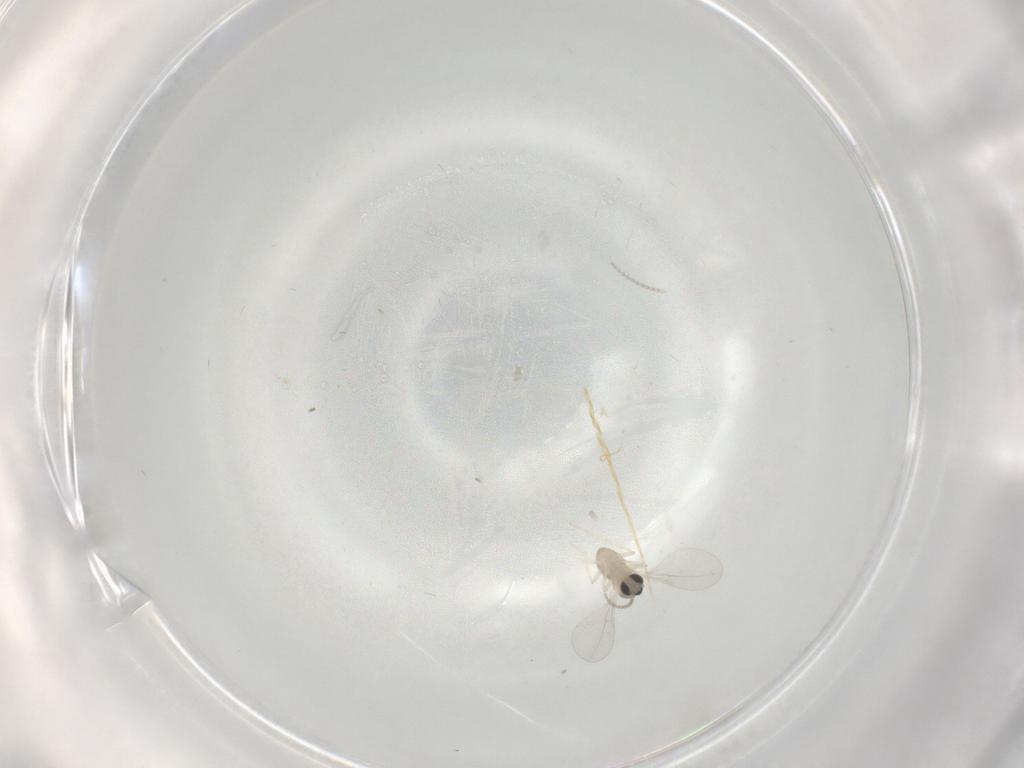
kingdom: Animalia
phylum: Arthropoda
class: Insecta
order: Diptera
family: Cecidomyiidae
